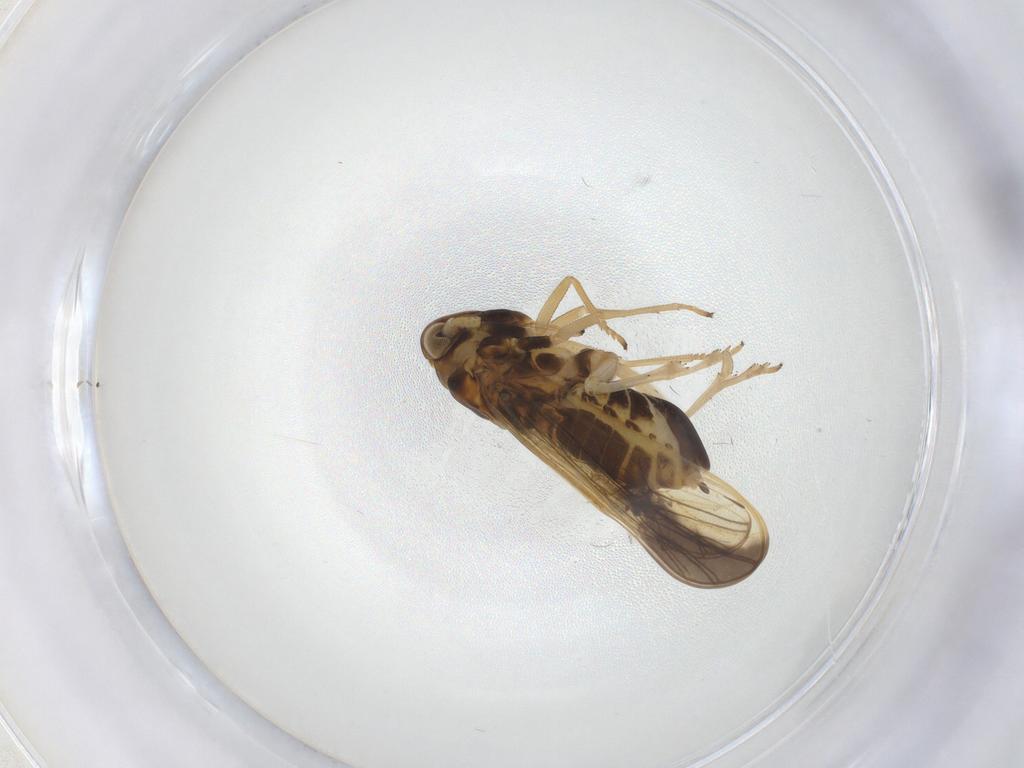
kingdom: Animalia
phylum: Arthropoda
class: Insecta
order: Hemiptera
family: Delphacidae
